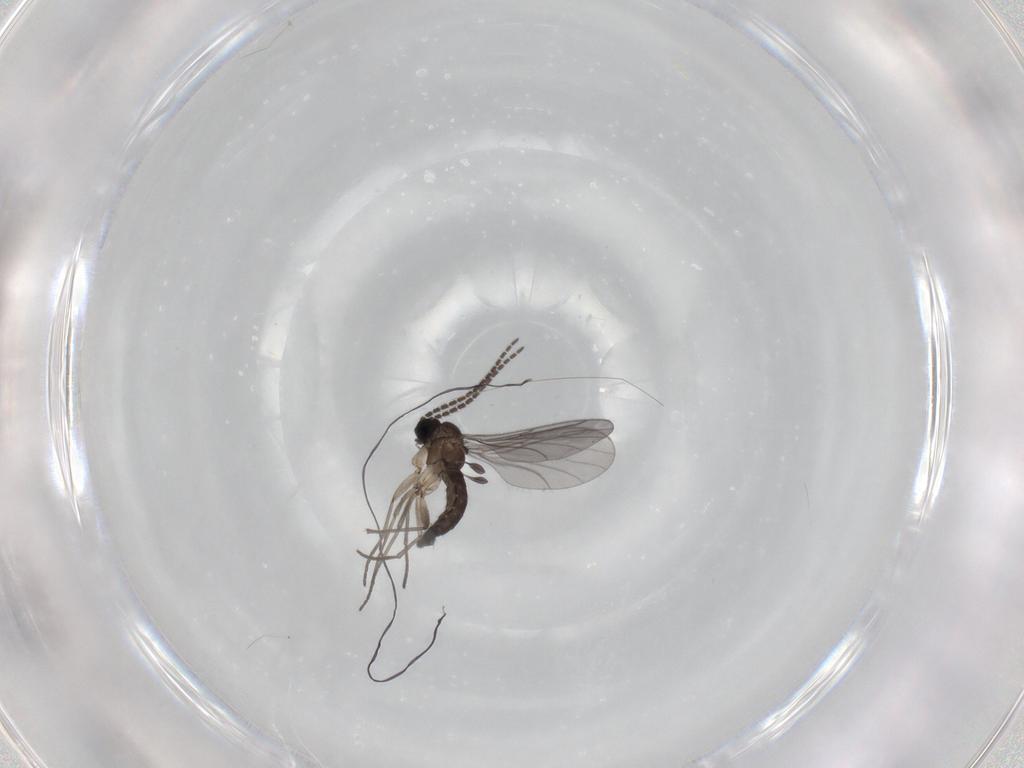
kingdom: Animalia
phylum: Arthropoda
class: Insecta
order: Diptera
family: Sciaridae
